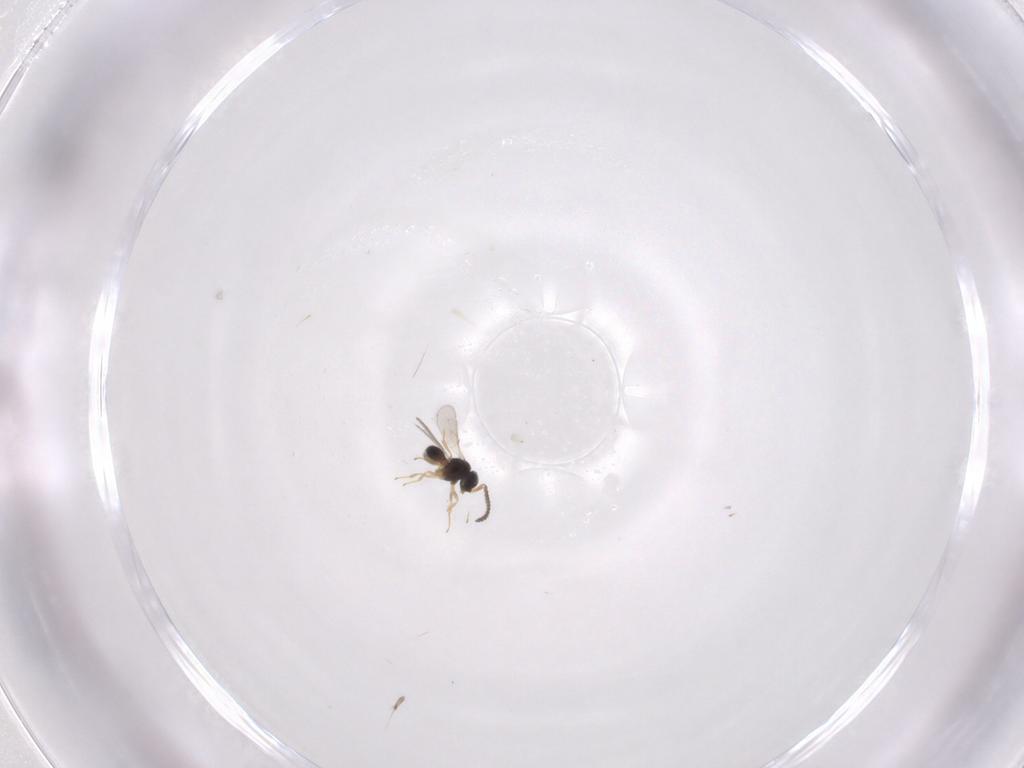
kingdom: Animalia
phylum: Arthropoda
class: Insecta
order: Hymenoptera
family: Scelionidae
